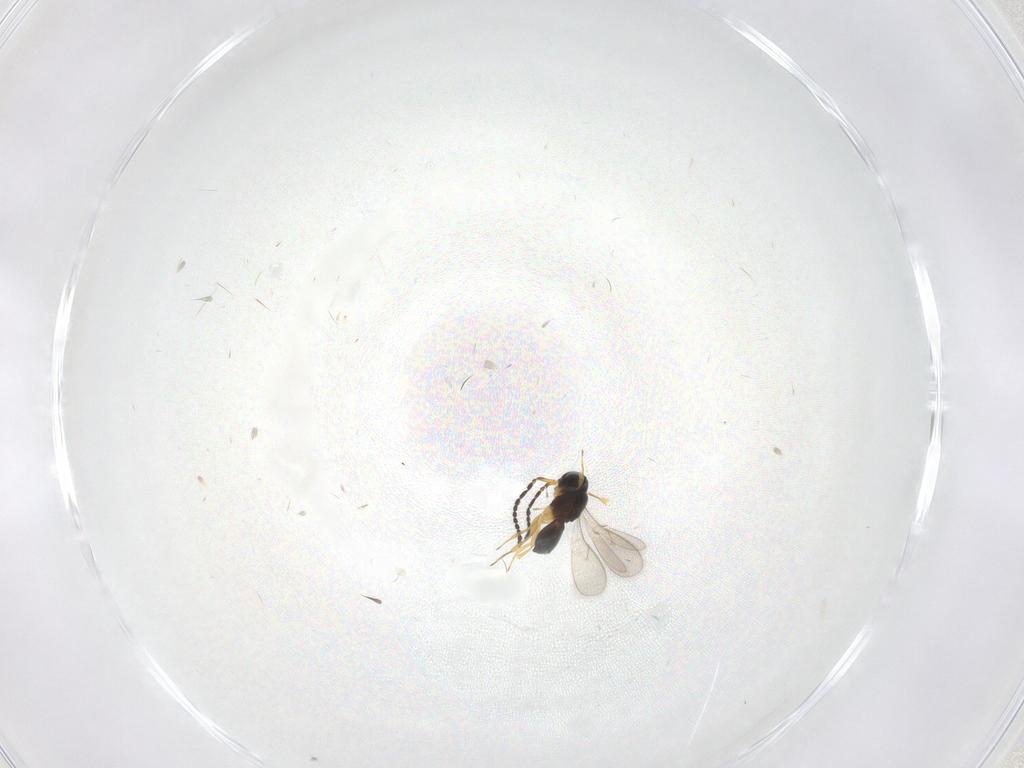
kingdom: Animalia
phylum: Arthropoda
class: Insecta
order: Hymenoptera
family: Scelionidae
